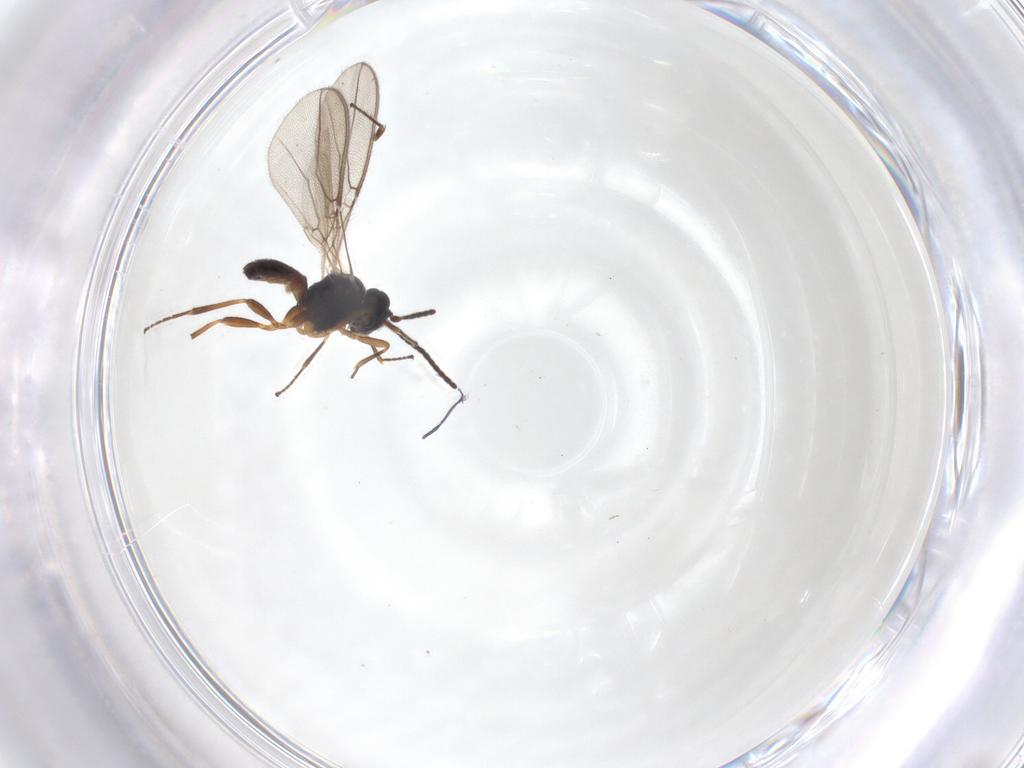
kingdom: Animalia
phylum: Arthropoda
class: Insecta
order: Hymenoptera
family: Braconidae
